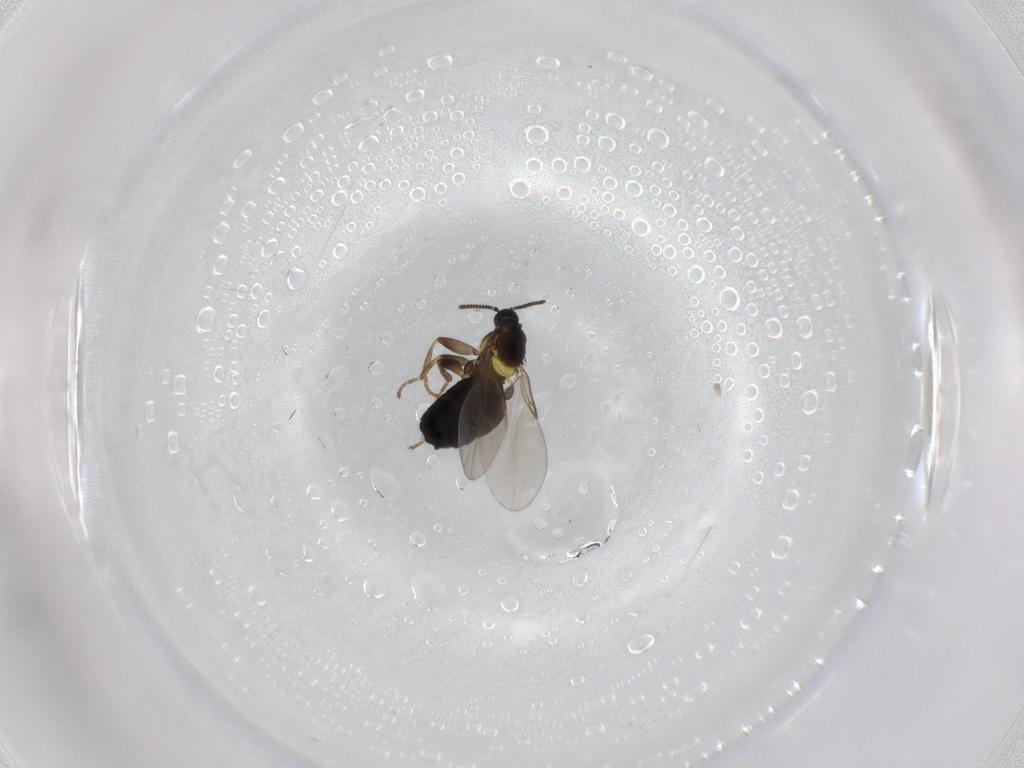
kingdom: Animalia
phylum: Arthropoda
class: Insecta
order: Diptera
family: Scatopsidae
